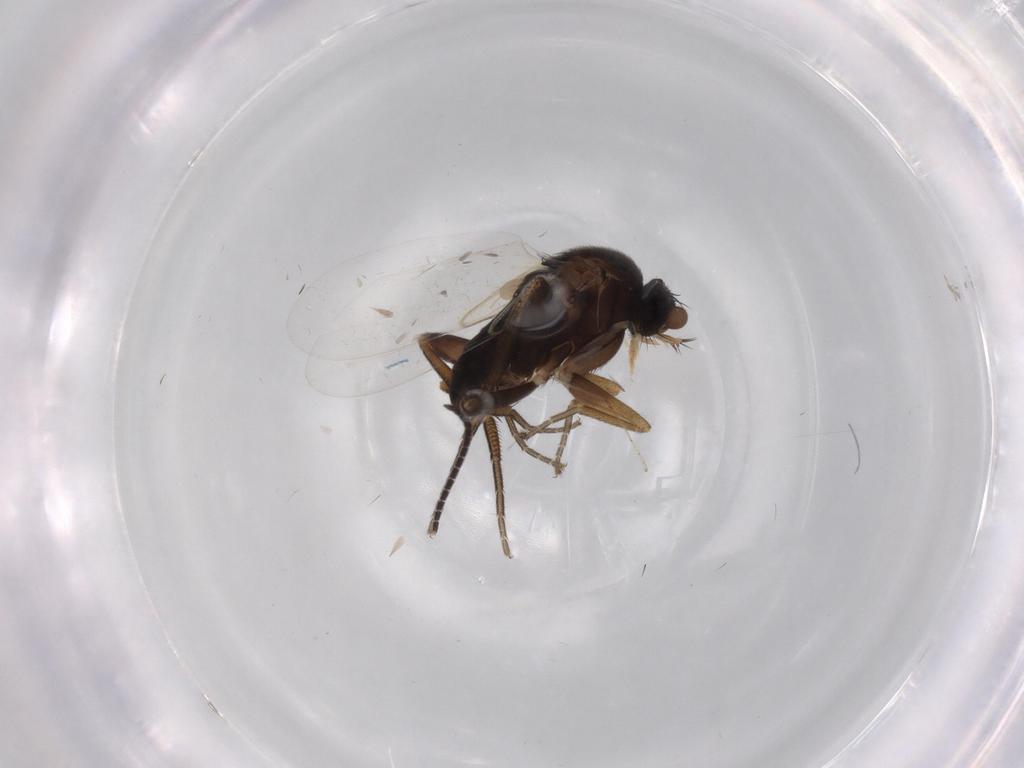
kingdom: Animalia
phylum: Arthropoda
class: Insecta
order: Diptera
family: Phoridae
